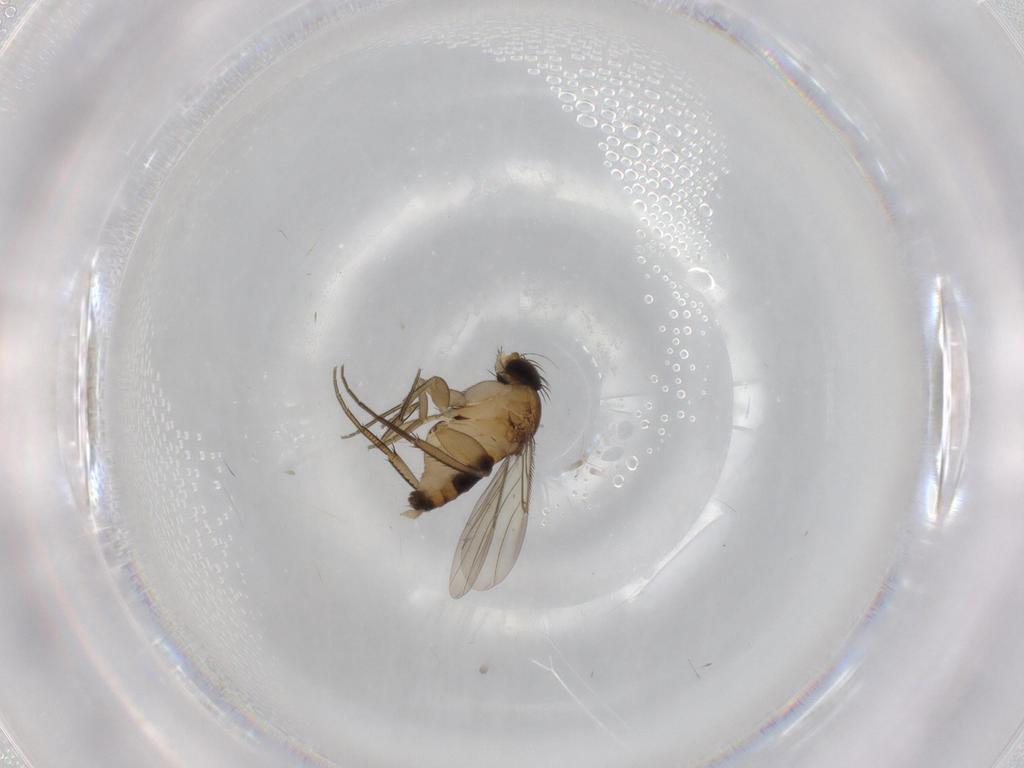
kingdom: Animalia
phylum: Arthropoda
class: Insecta
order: Diptera
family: Phoridae
